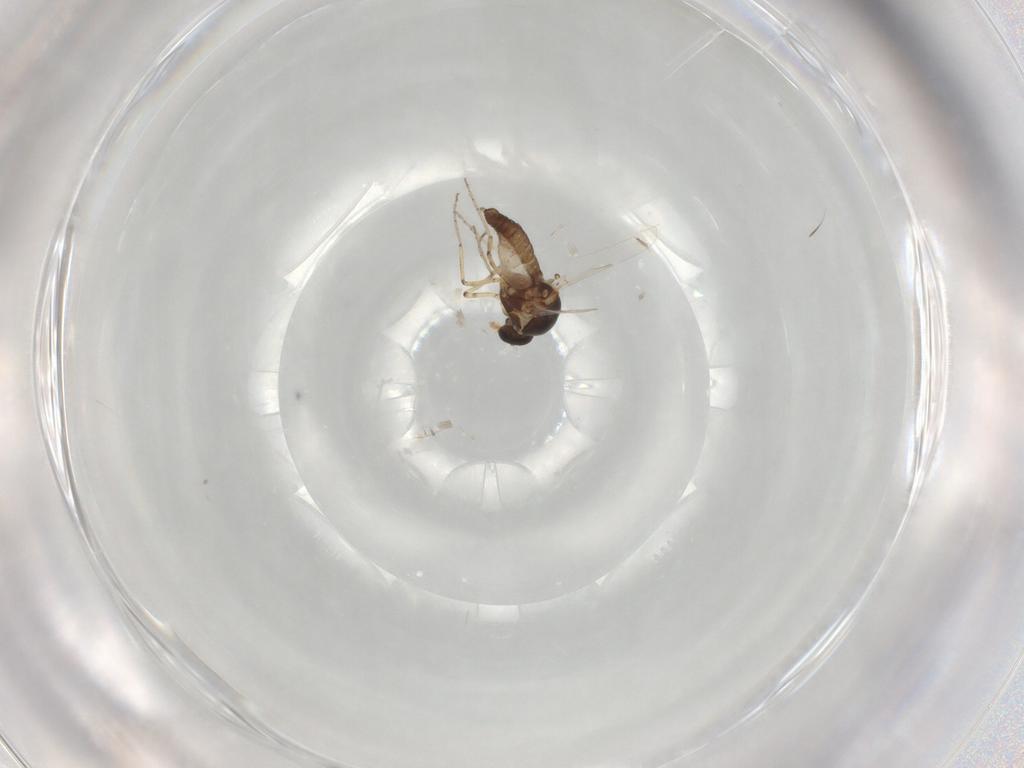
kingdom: Animalia
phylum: Arthropoda
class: Insecta
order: Diptera
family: Ceratopogonidae
